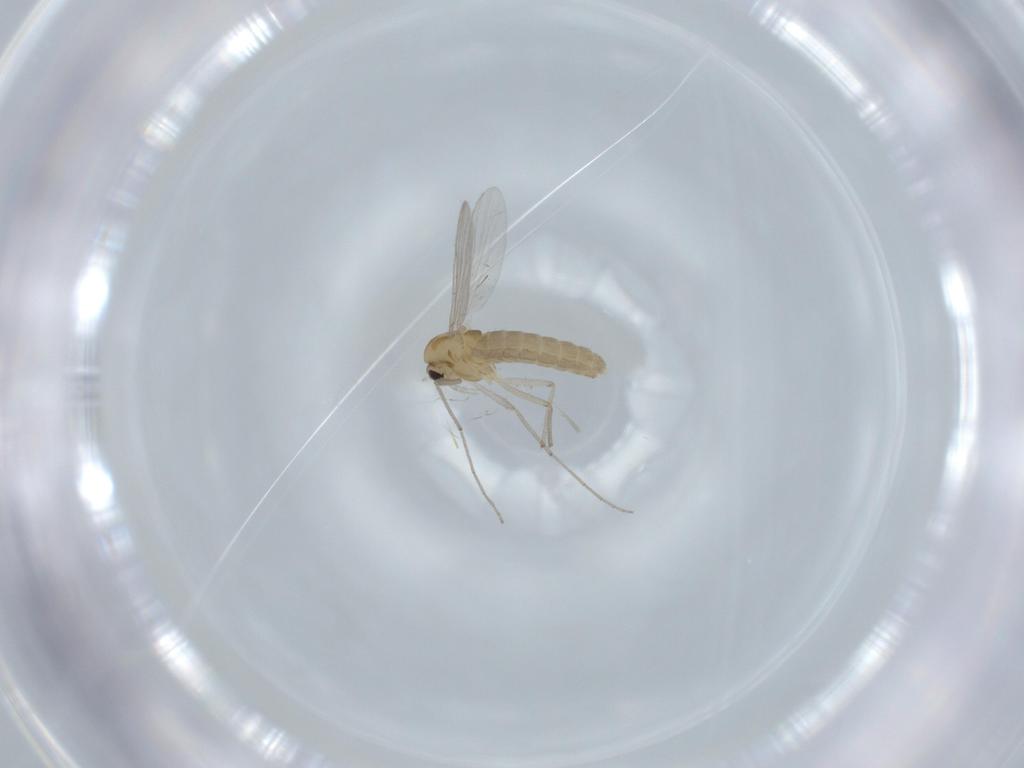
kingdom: Animalia
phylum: Arthropoda
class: Insecta
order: Diptera
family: Chironomidae
